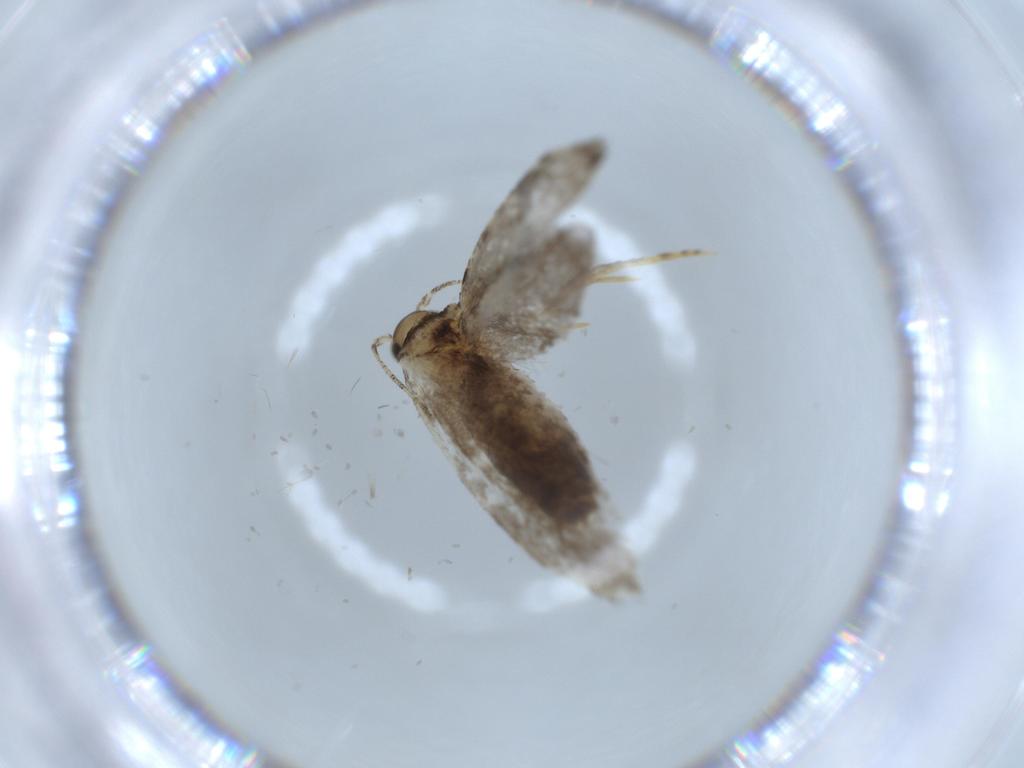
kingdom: Animalia
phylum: Arthropoda
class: Insecta
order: Lepidoptera
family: Tineidae
